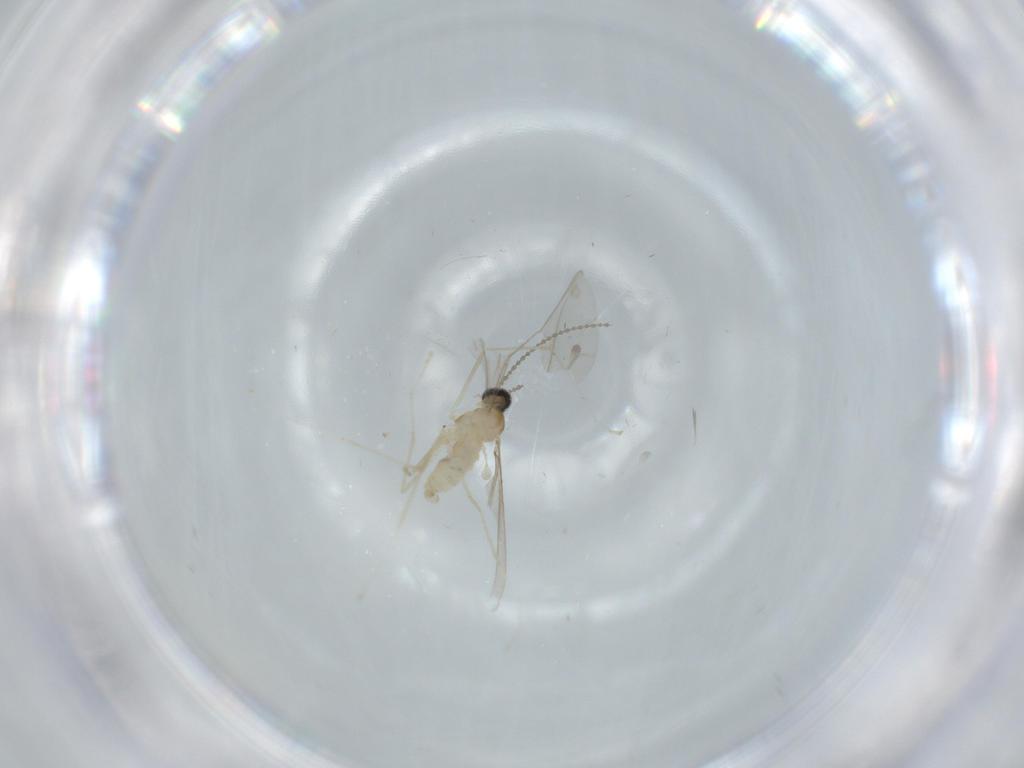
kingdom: Animalia
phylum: Arthropoda
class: Insecta
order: Diptera
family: Cecidomyiidae
